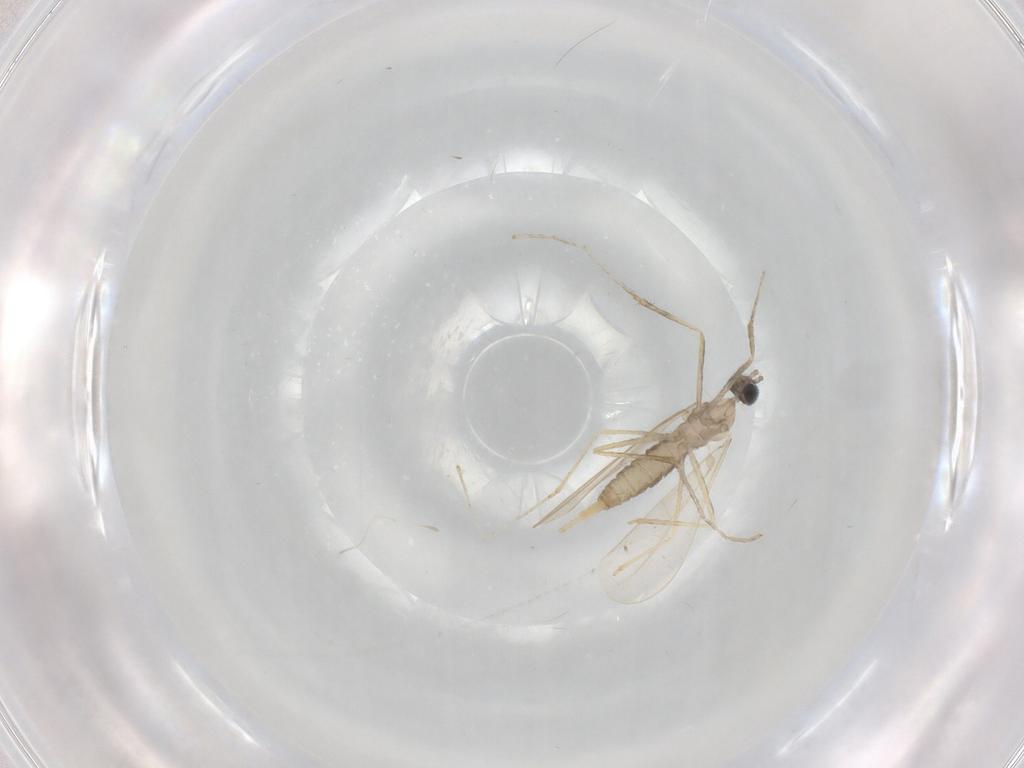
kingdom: Animalia
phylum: Arthropoda
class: Insecta
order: Diptera
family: Cecidomyiidae
